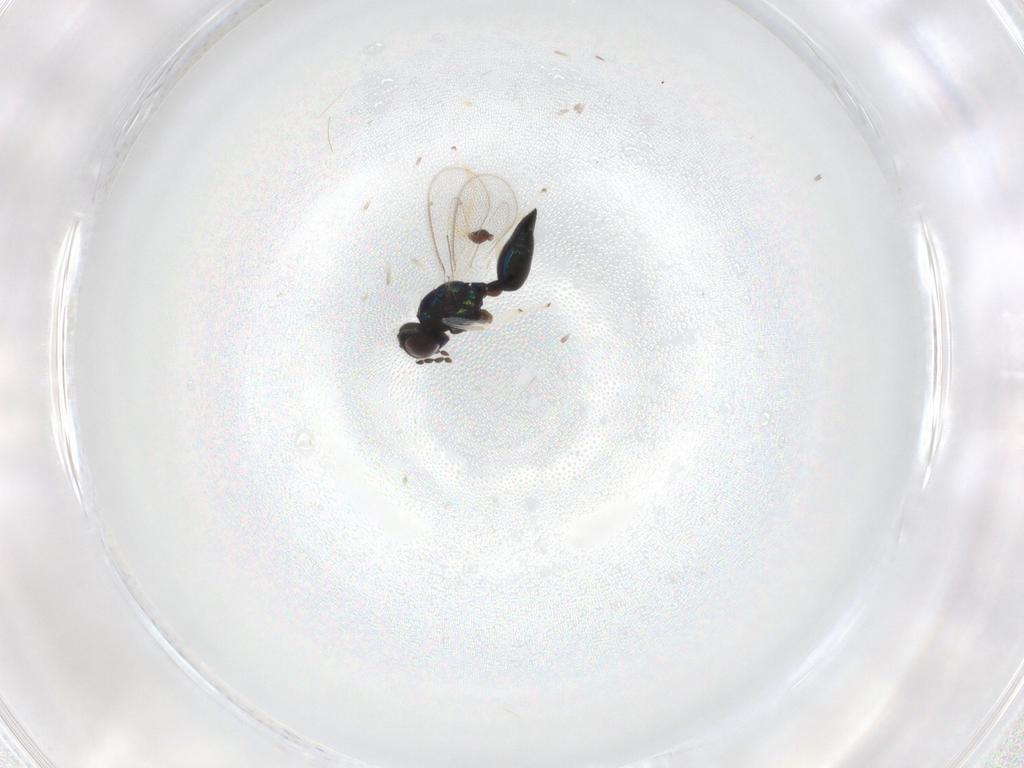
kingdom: Animalia
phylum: Arthropoda
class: Insecta
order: Hymenoptera
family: Eulophidae
